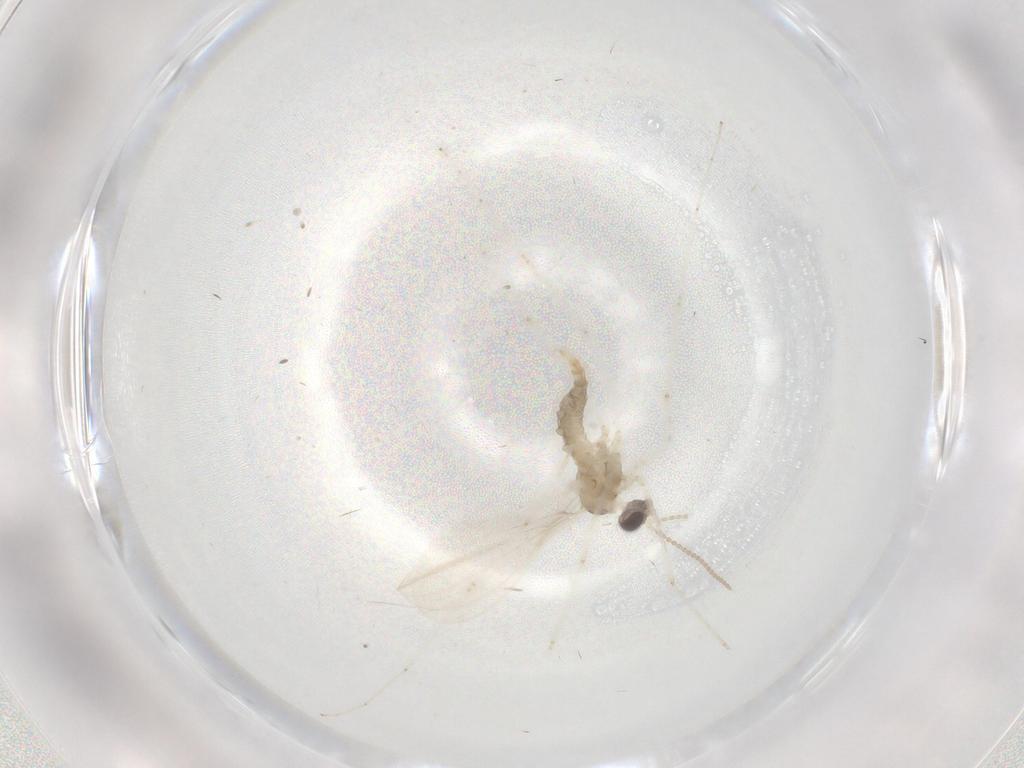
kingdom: Animalia
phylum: Arthropoda
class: Insecta
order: Diptera
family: Cecidomyiidae
